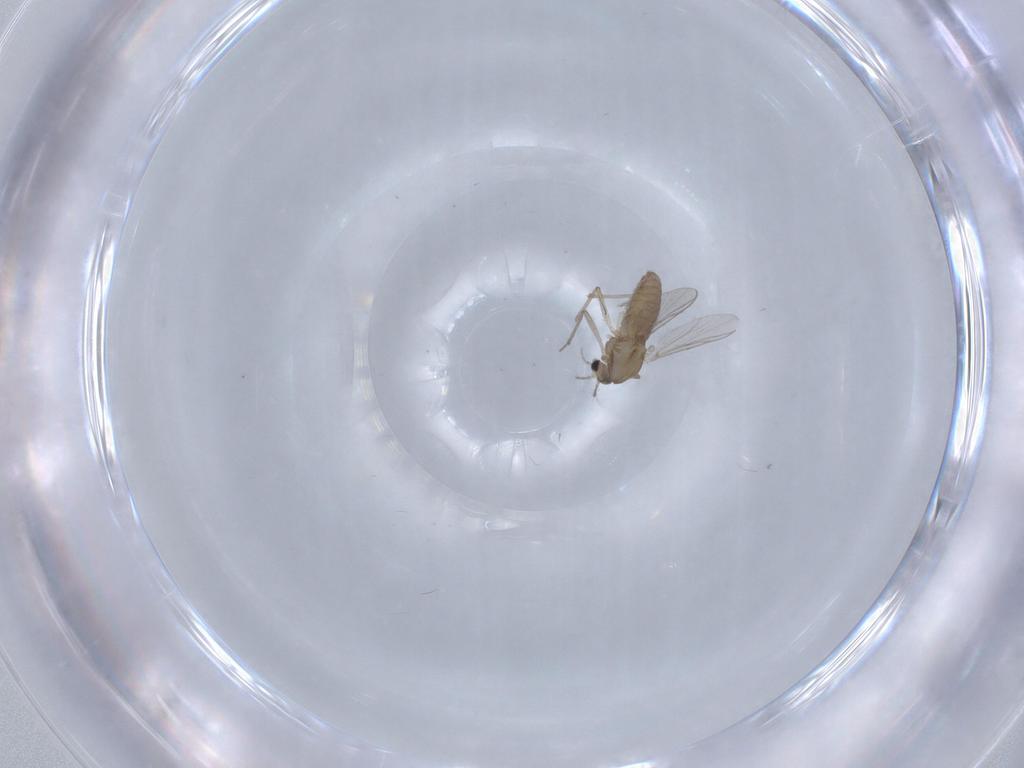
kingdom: Animalia
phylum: Arthropoda
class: Insecta
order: Diptera
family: Chironomidae
